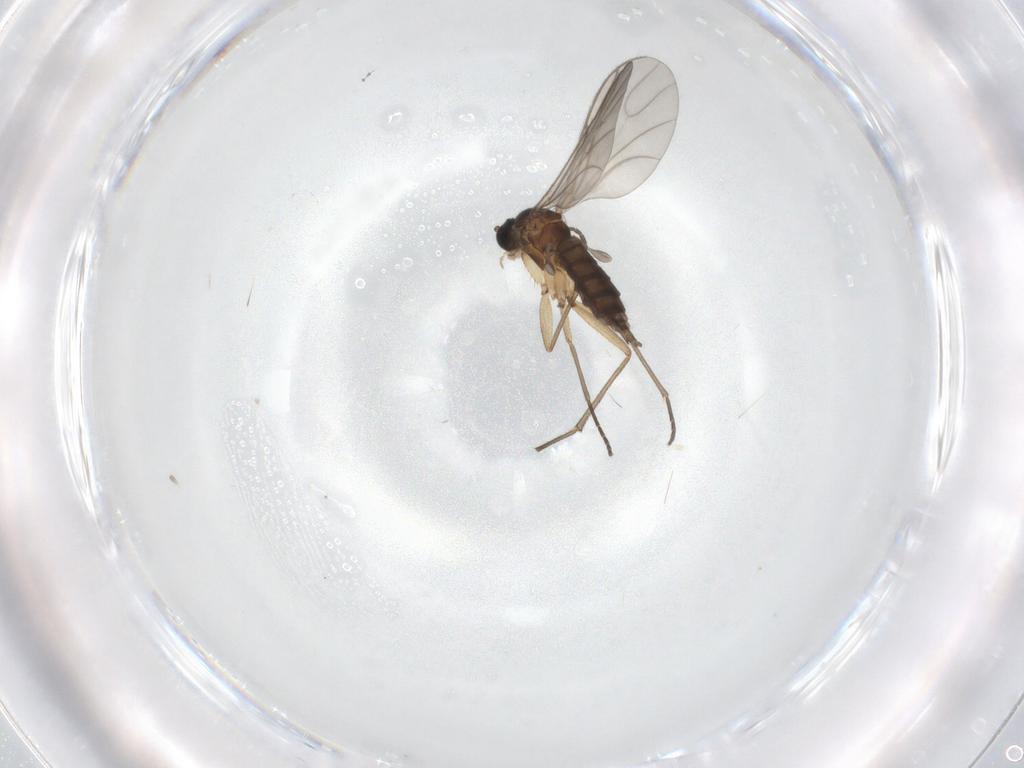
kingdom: Animalia
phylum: Arthropoda
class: Insecta
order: Diptera
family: Sciaridae
